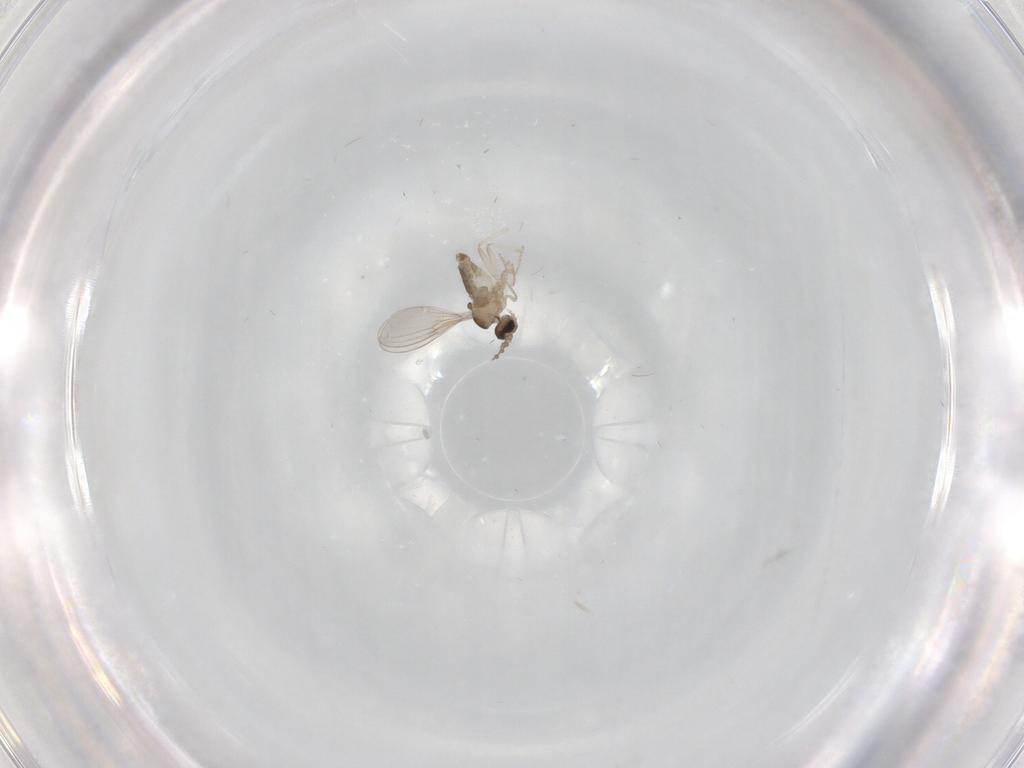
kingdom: Animalia
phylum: Arthropoda
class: Insecta
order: Diptera
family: Cecidomyiidae
